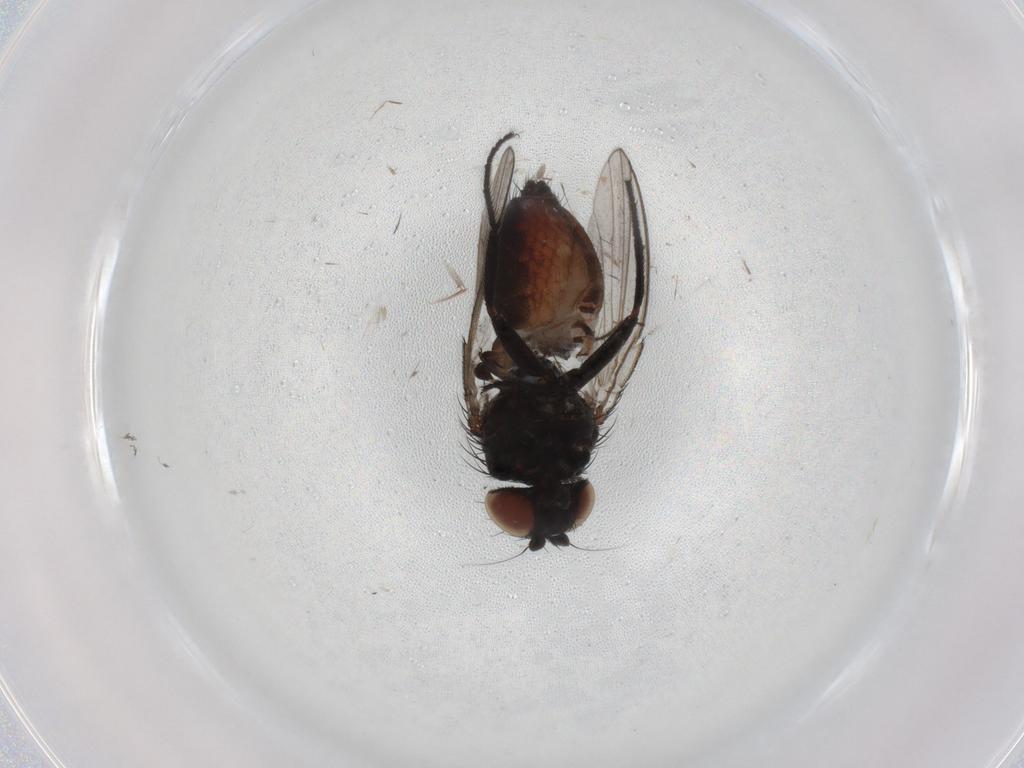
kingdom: Animalia
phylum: Arthropoda
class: Insecta
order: Diptera
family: Milichiidae
